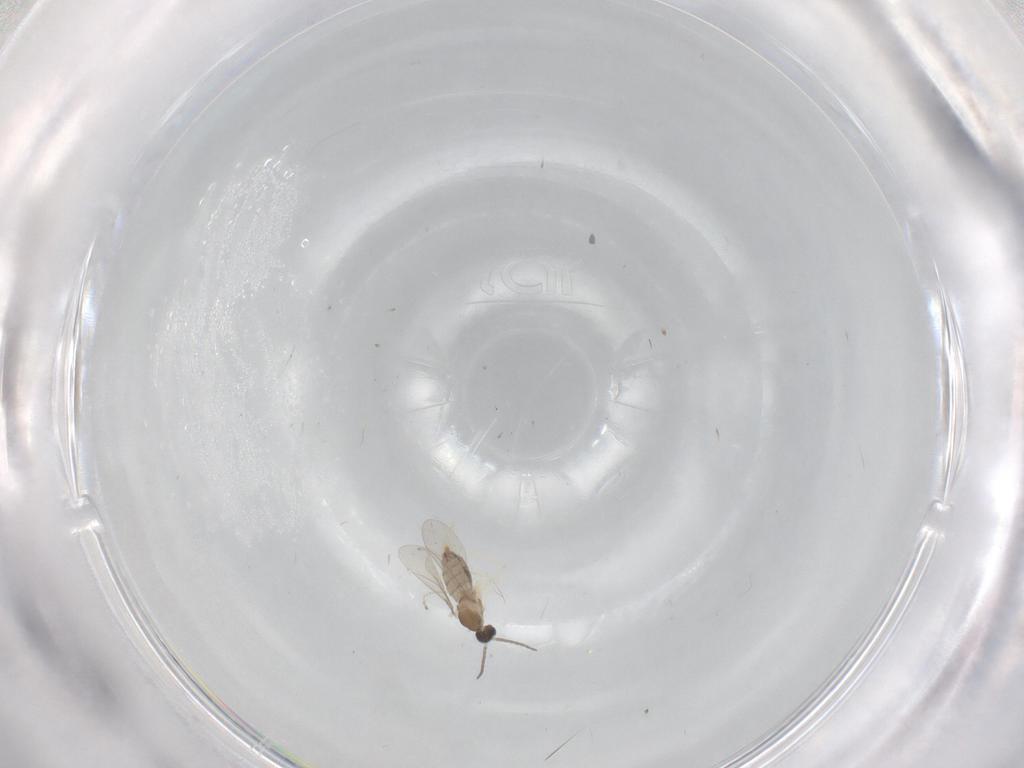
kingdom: Animalia
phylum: Arthropoda
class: Insecta
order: Diptera
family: Cecidomyiidae
